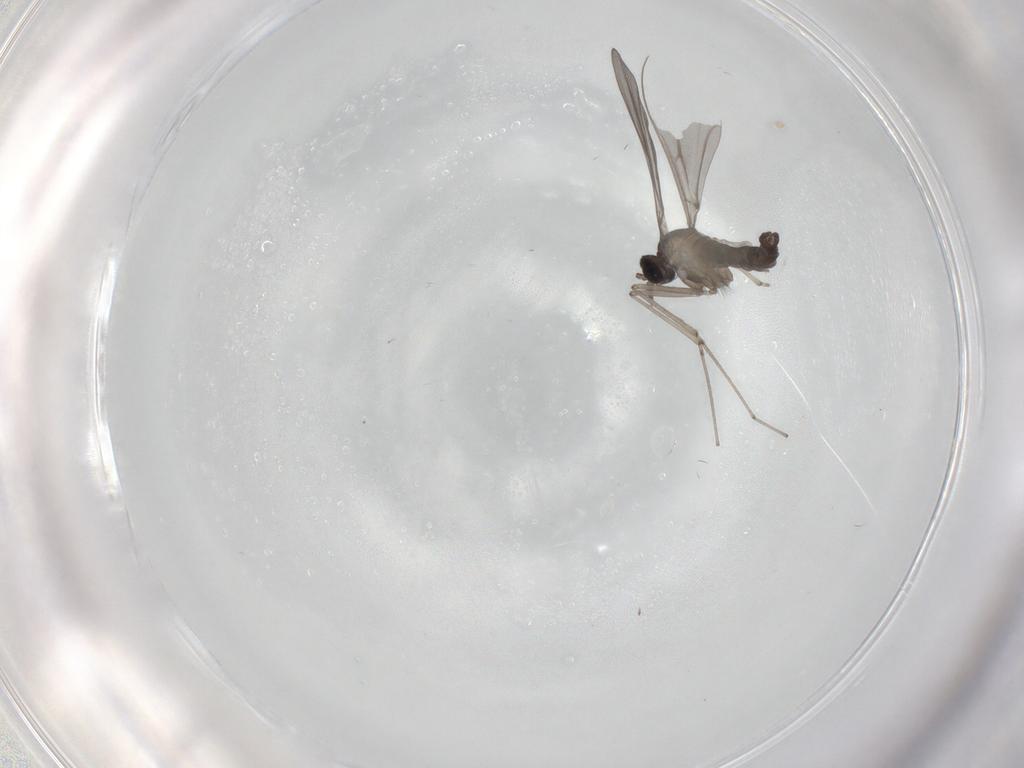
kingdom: Animalia
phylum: Arthropoda
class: Insecta
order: Diptera
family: Cecidomyiidae
